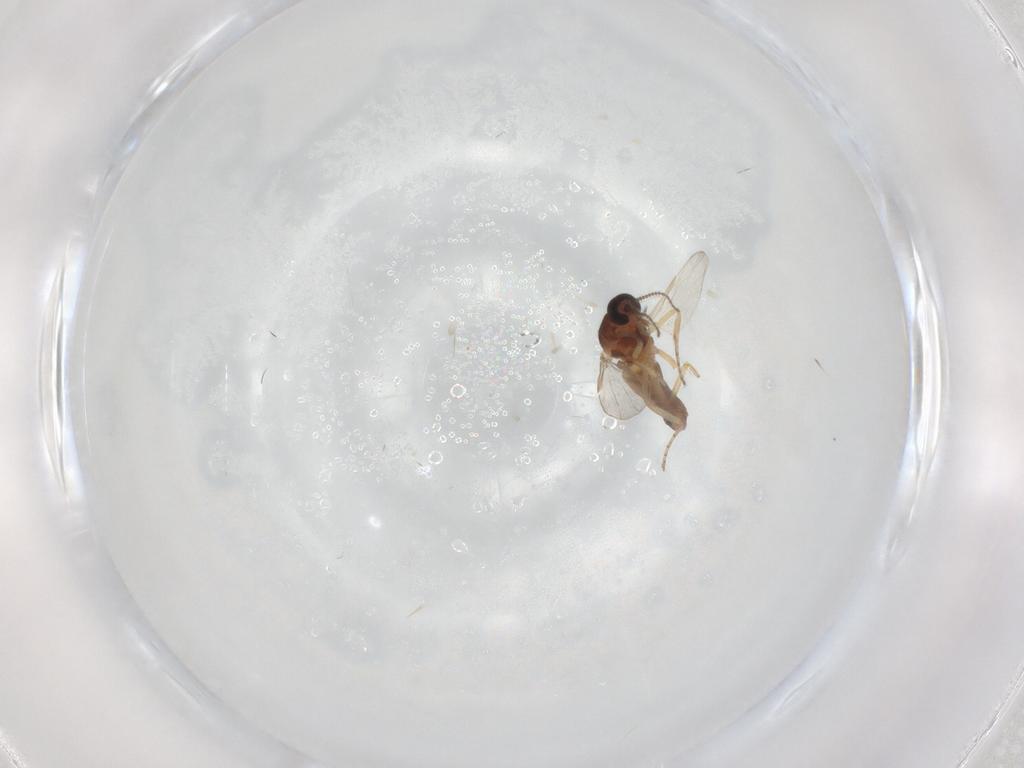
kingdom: Animalia
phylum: Arthropoda
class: Insecta
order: Diptera
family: Ceratopogonidae
